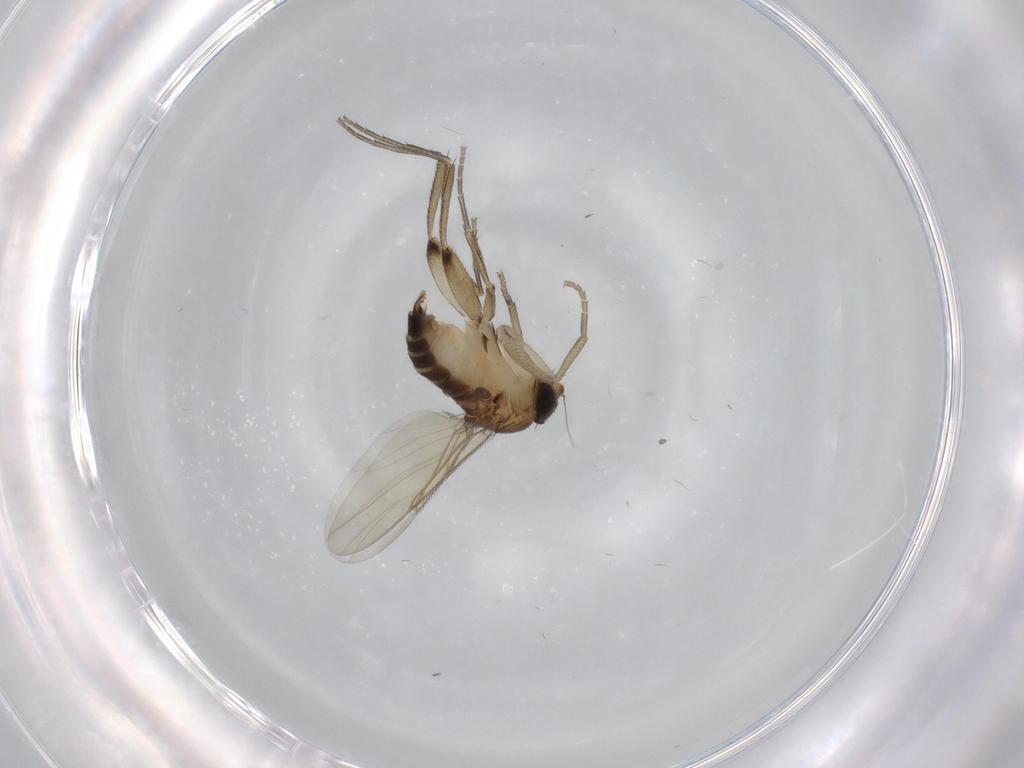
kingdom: Animalia
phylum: Arthropoda
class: Insecta
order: Diptera
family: Phoridae
